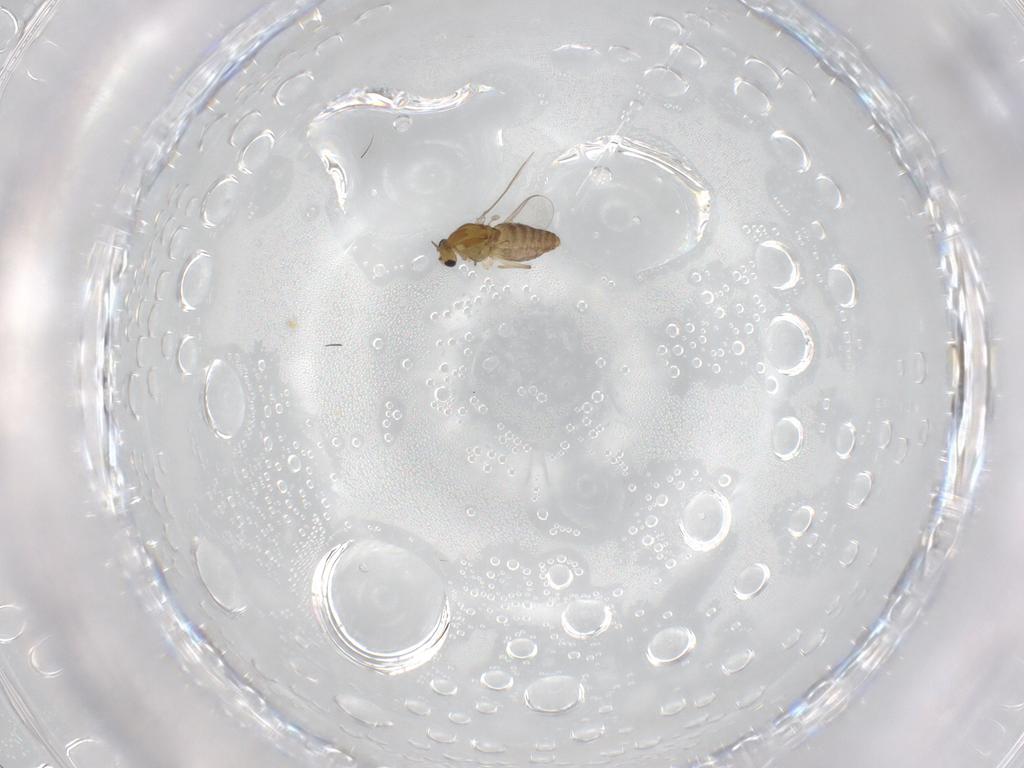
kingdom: Animalia
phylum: Arthropoda
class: Insecta
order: Diptera
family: Chironomidae
